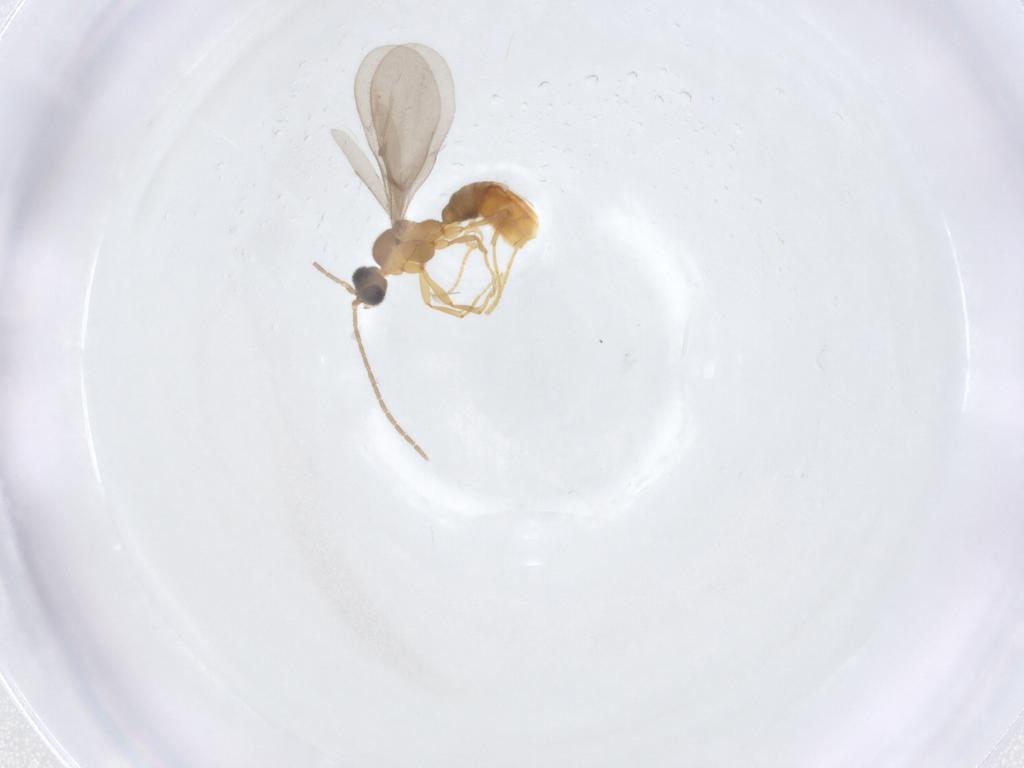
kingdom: Animalia
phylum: Arthropoda
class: Insecta
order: Hymenoptera
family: Formicidae
